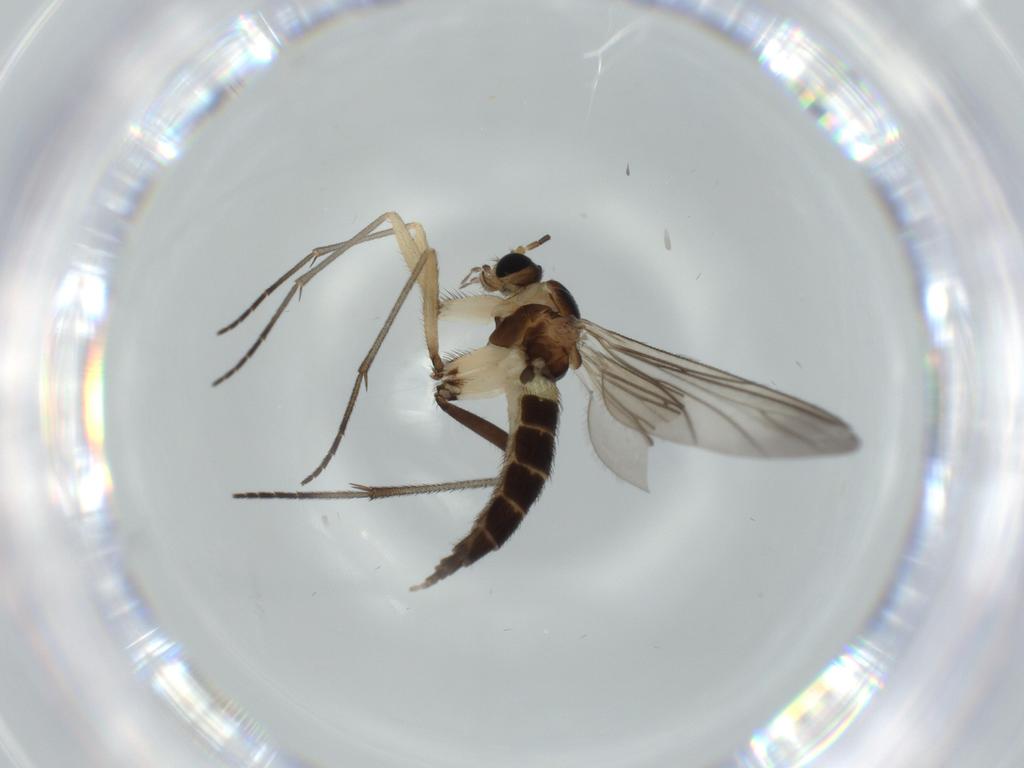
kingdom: Animalia
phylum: Arthropoda
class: Insecta
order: Diptera
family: Sciaridae
